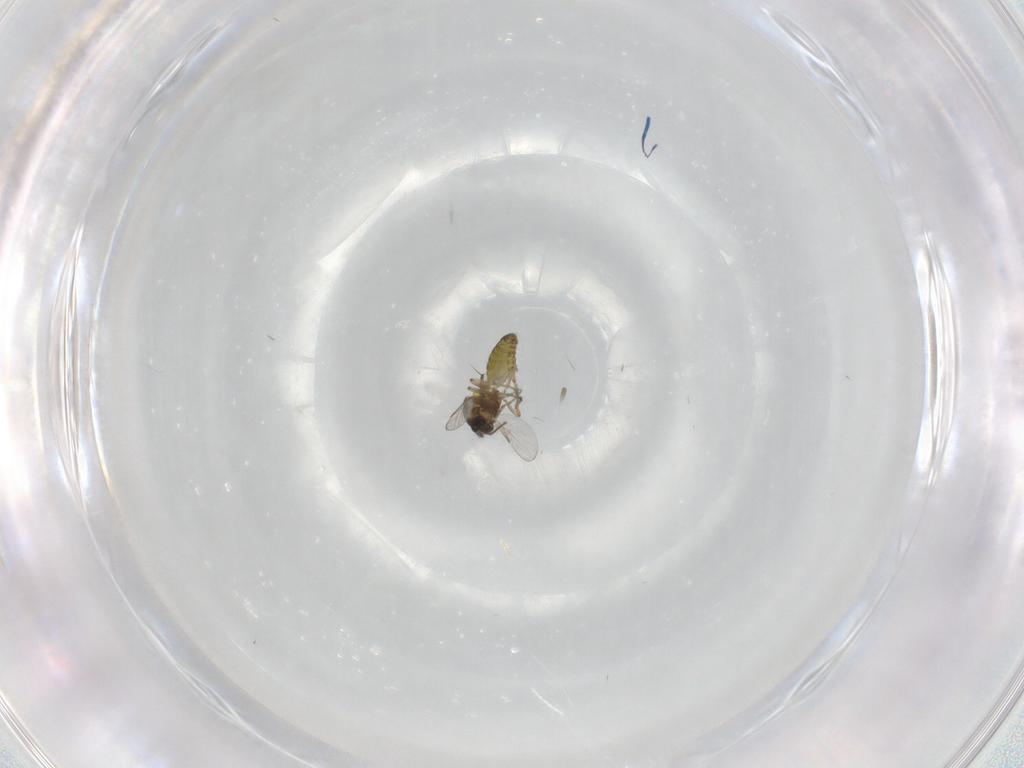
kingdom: Animalia
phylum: Arthropoda
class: Insecta
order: Diptera
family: Ceratopogonidae
